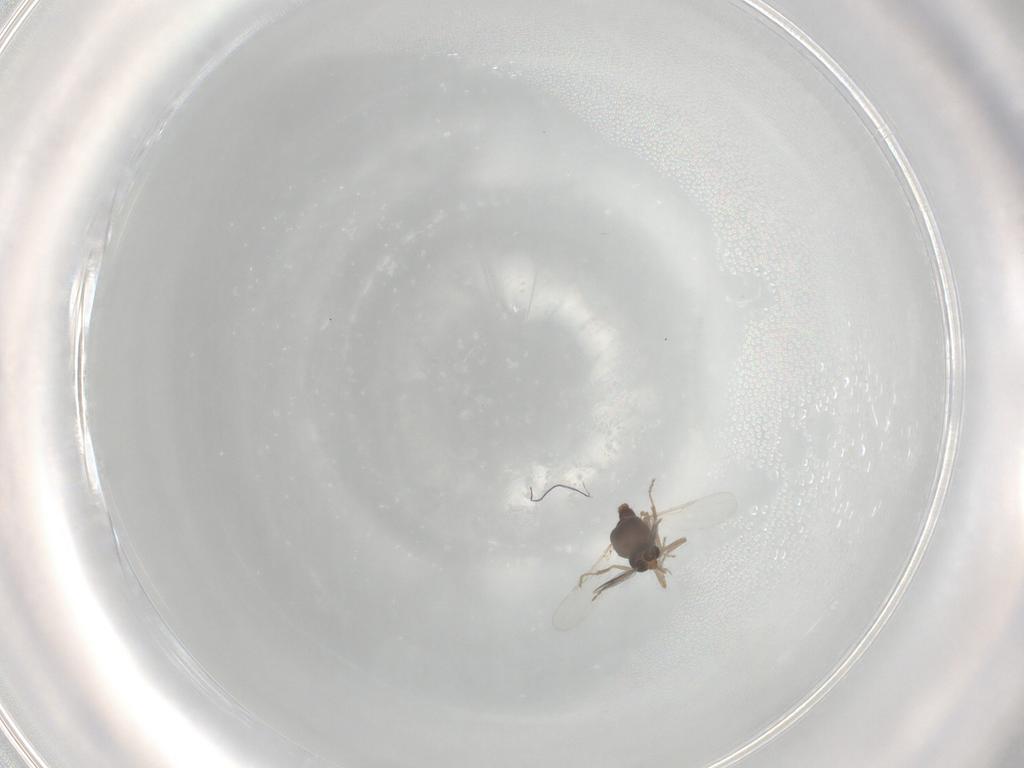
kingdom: Animalia
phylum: Arthropoda
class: Insecta
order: Diptera
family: Ceratopogonidae
